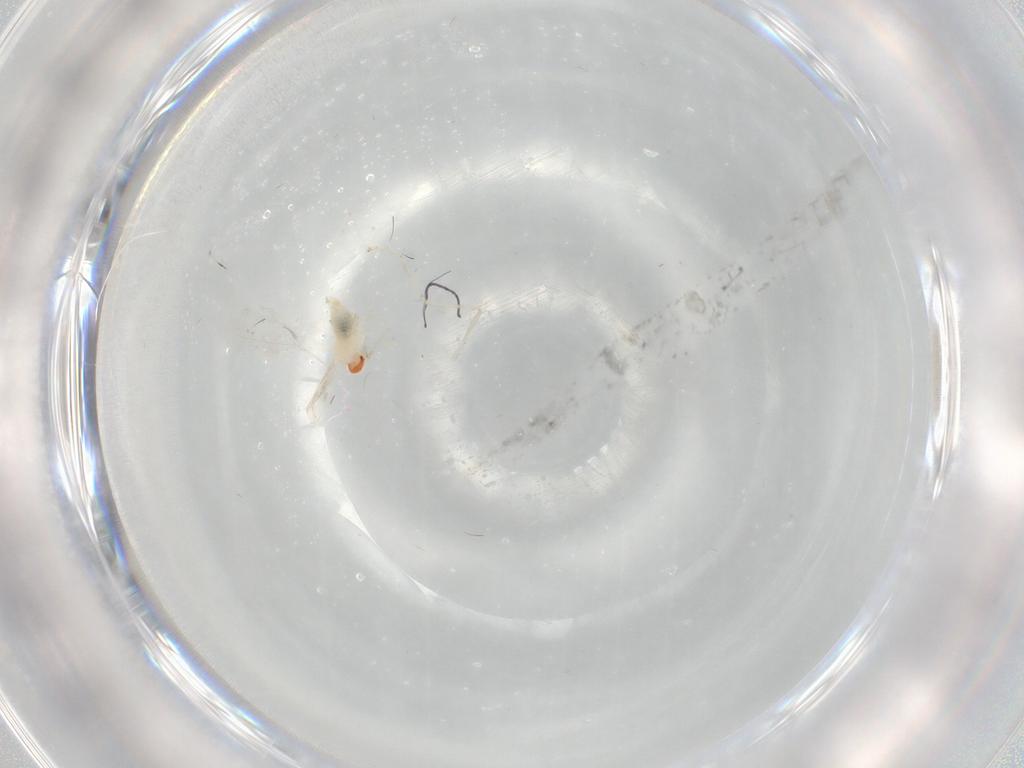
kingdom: Animalia
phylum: Arthropoda
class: Insecta
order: Diptera
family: Cecidomyiidae
